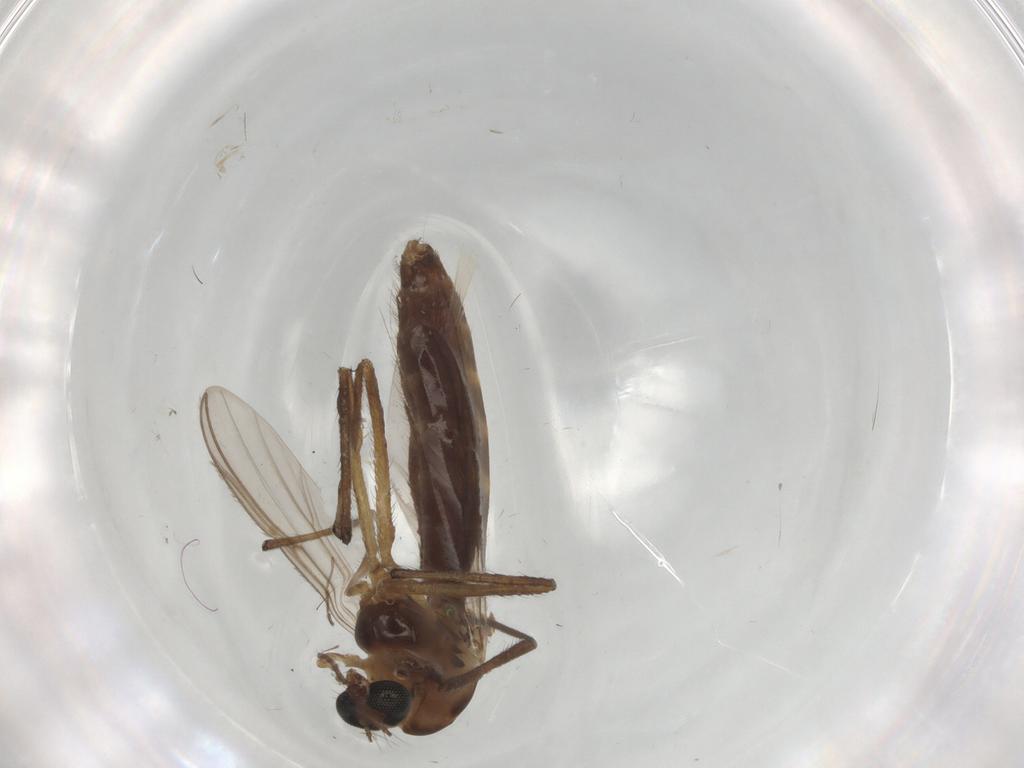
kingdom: Animalia
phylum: Arthropoda
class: Insecta
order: Diptera
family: Chironomidae
